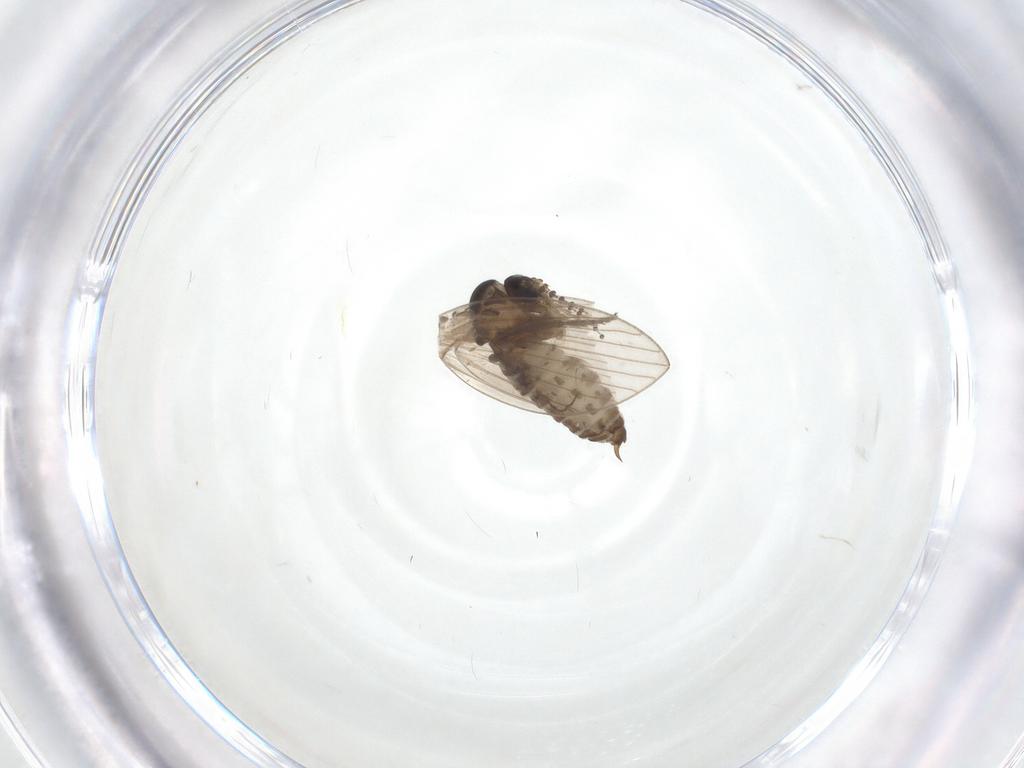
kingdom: Animalia
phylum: Arthropoda
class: Insecta
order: Diptera
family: Psychodidae
